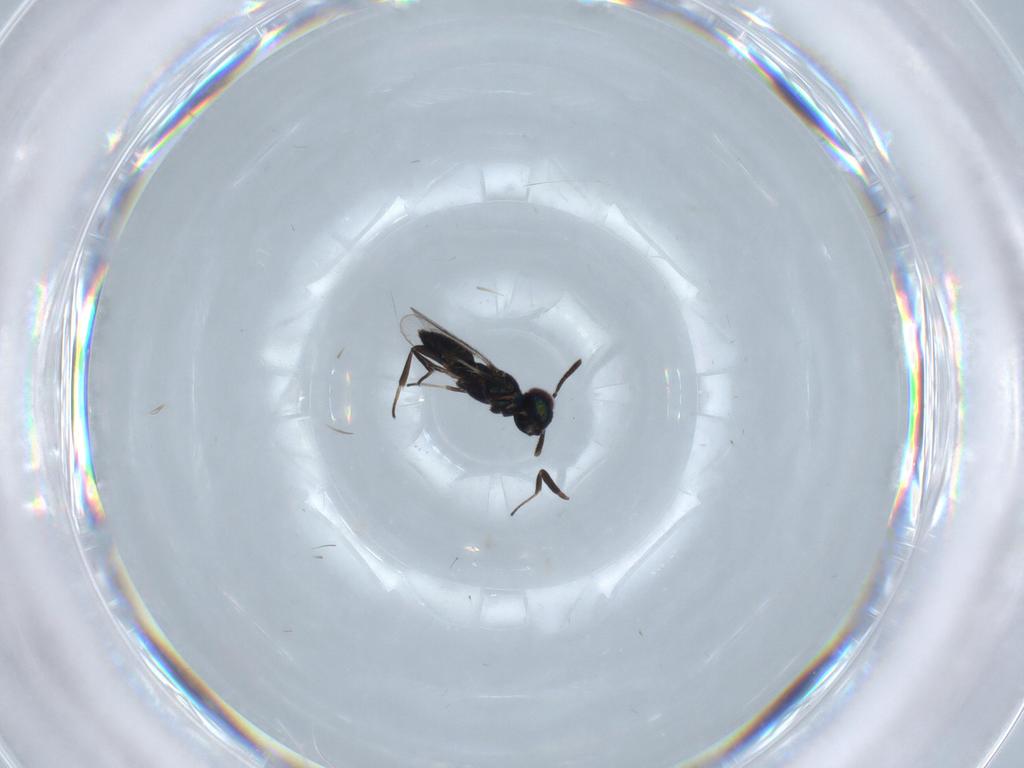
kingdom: Animalia
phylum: Arthropoda
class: Insecta
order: Hymenoptera
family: Eupelmidae
